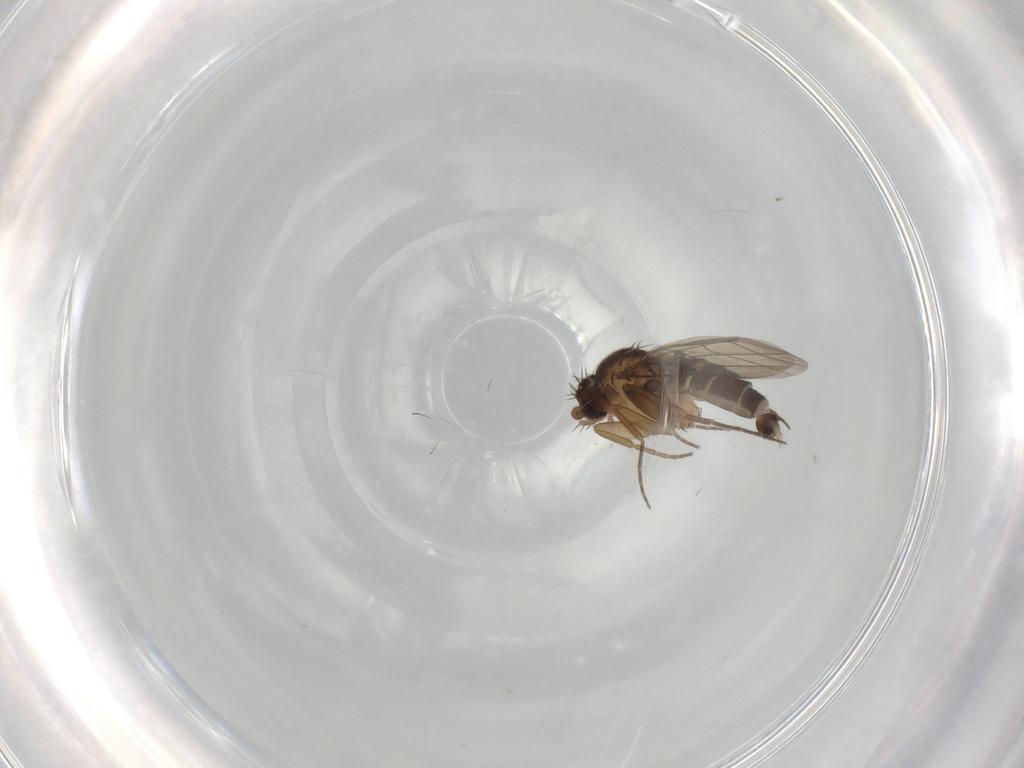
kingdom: Animalia
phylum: Arthropoda
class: Insecta
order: Diptera
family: Phoridae
